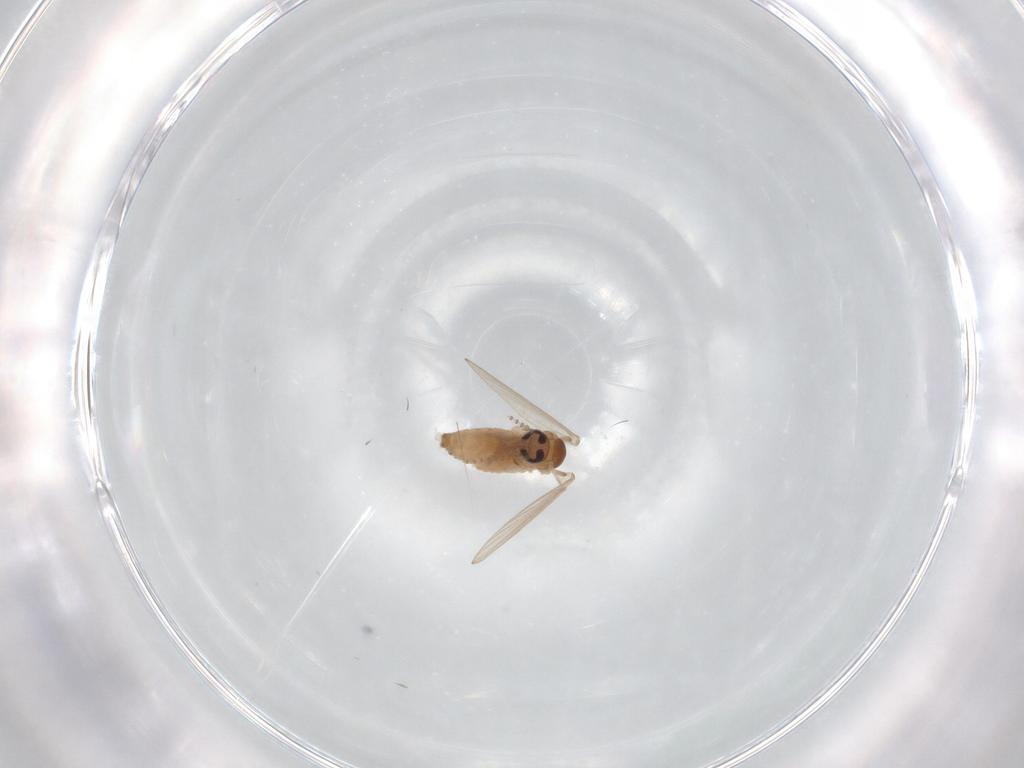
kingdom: Animalia
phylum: Arthropoda
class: Insecta
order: Diptera
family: Psychodidae
